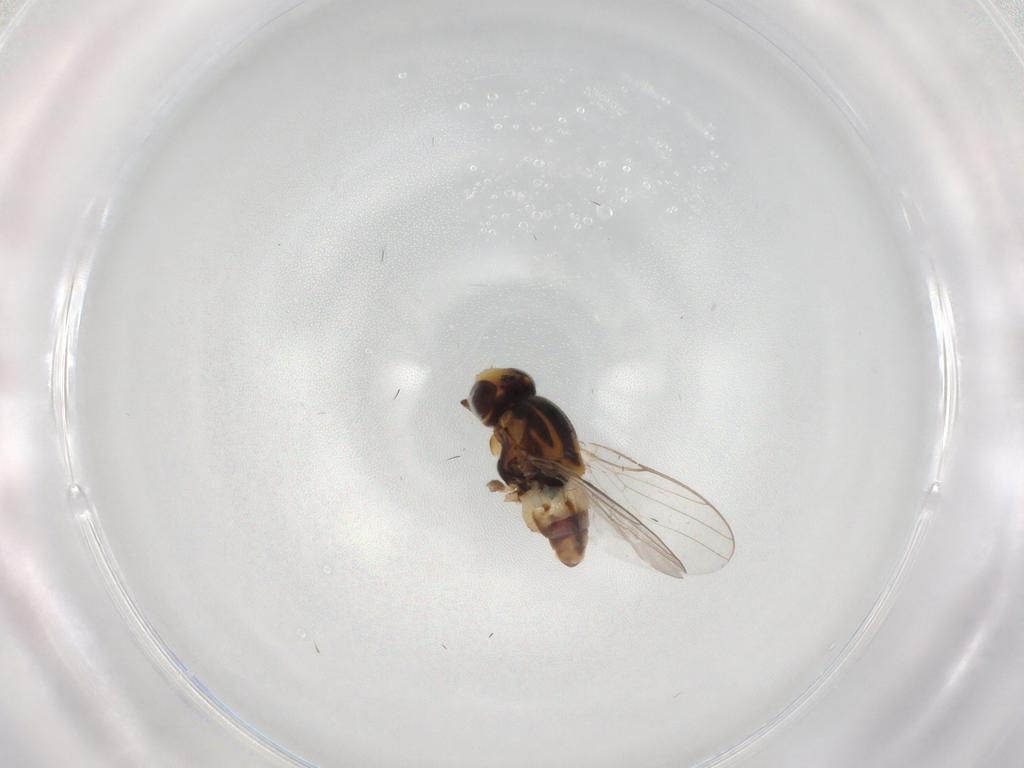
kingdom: Animalia
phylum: Arthropoda
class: Insecta
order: Diptera
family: Chloropidae
